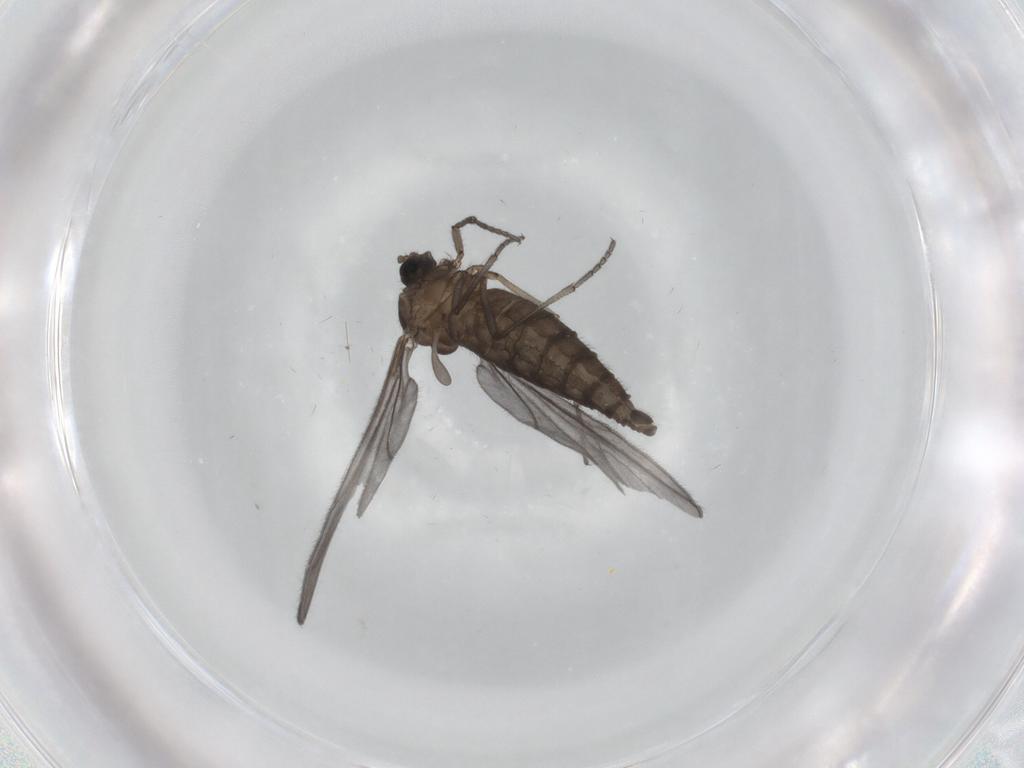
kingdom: Animalia
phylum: Arthropoda
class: Insecta
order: Diptera
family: Sciaridae
